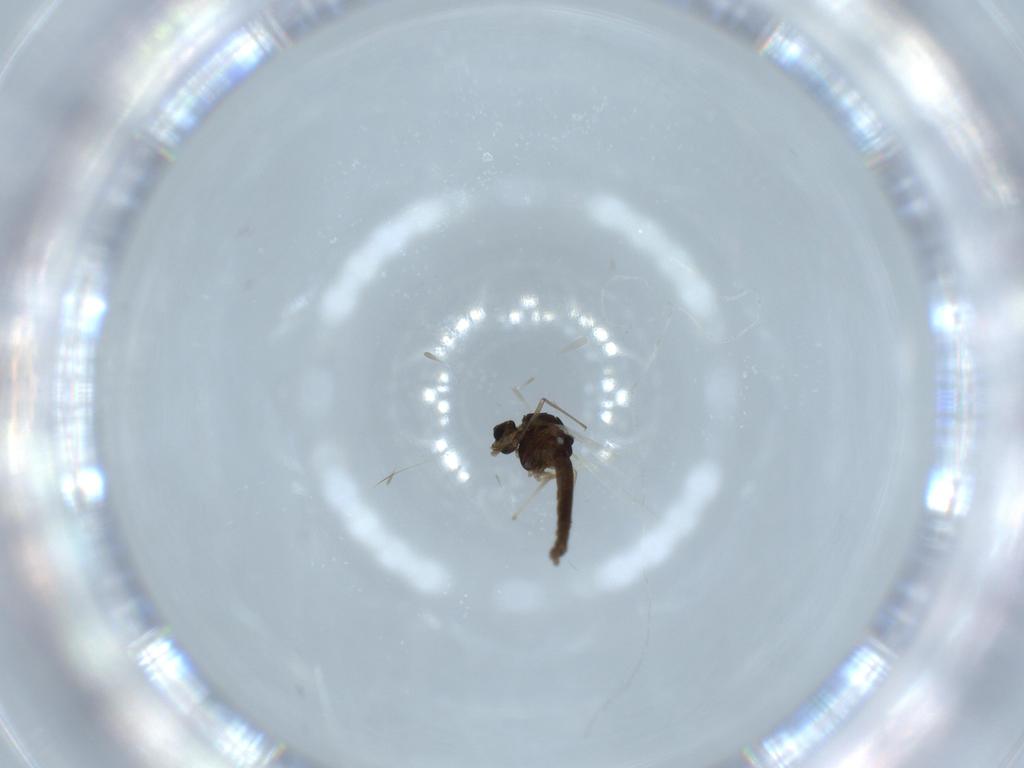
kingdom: Animalia
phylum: Arthropoda
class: Insecta
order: Diptera
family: Chironomidae
